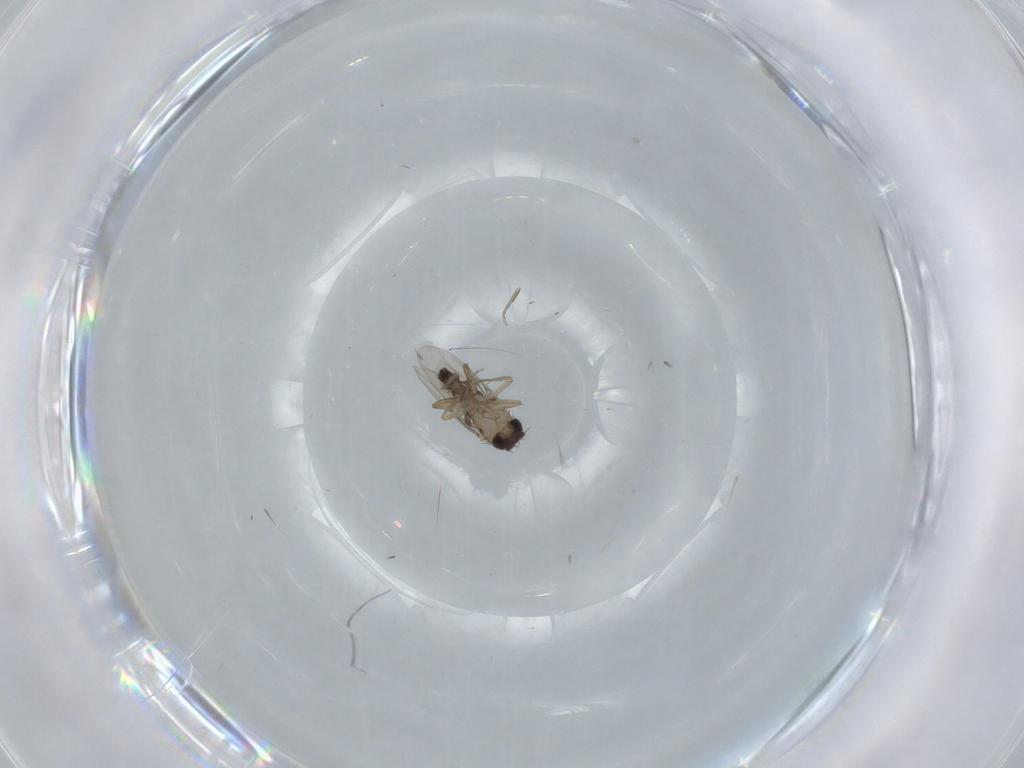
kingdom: Animalia
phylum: Arthropoda
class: Insecta
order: Diptera
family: Phoridae
